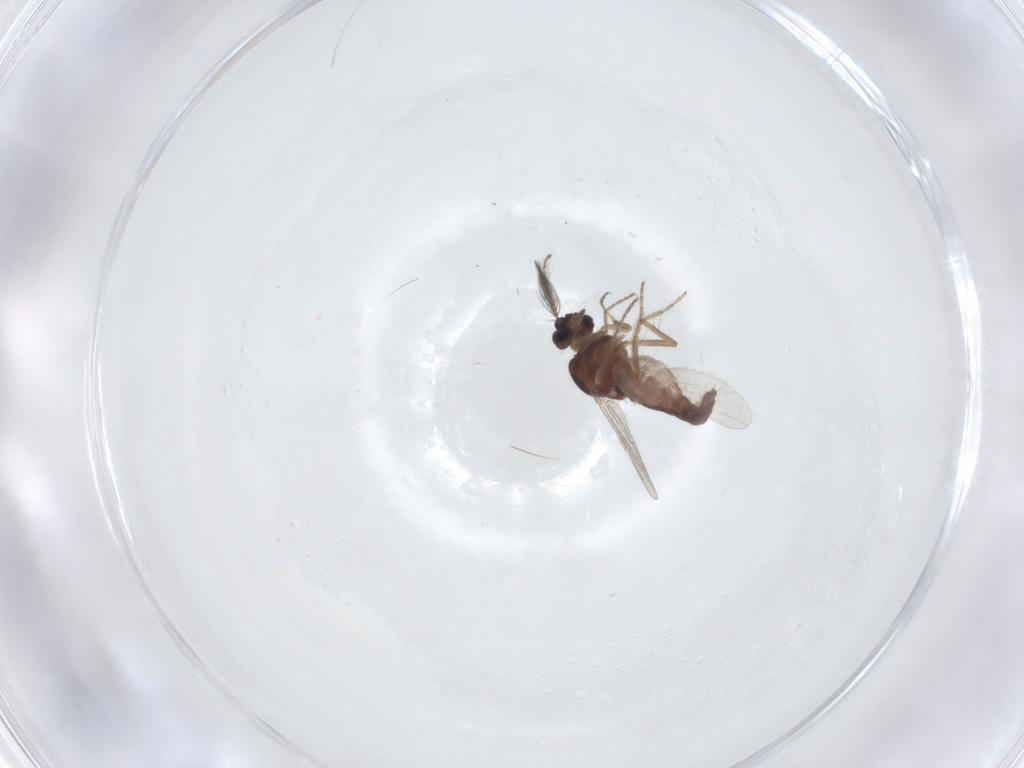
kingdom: Animalia
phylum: Arthropoda
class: Insecta
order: Diptera
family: Ceratopogonidae
